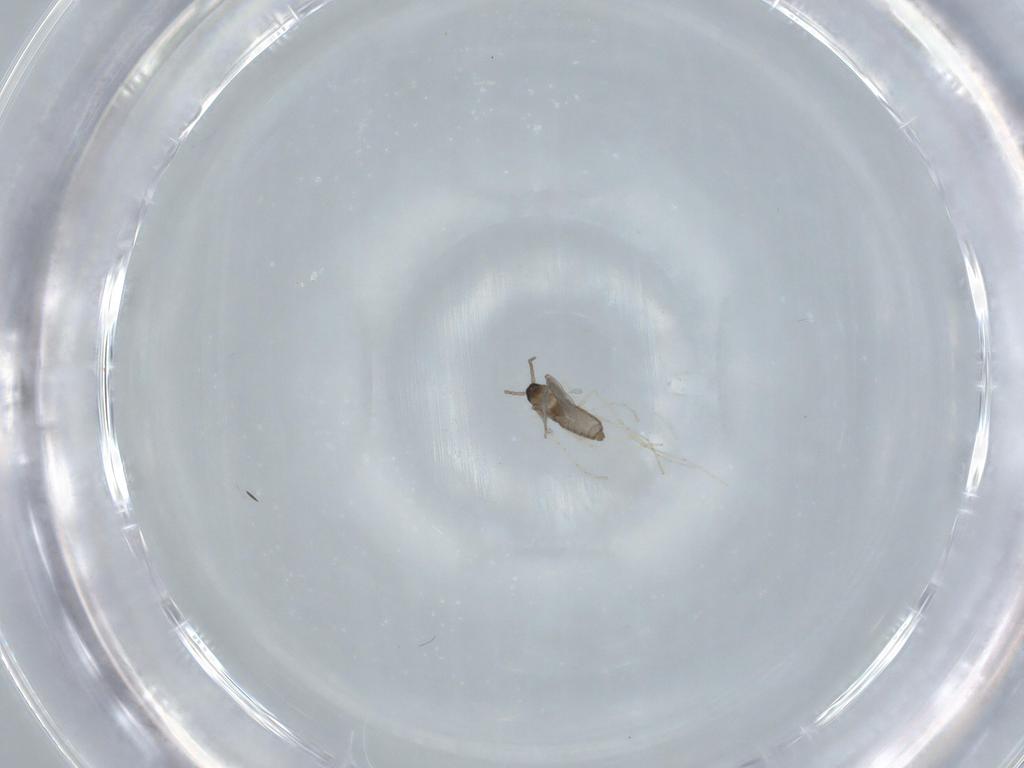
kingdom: Animalia
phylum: Arthropoda
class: Insecta
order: Diptera
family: Cecidomyiidae
